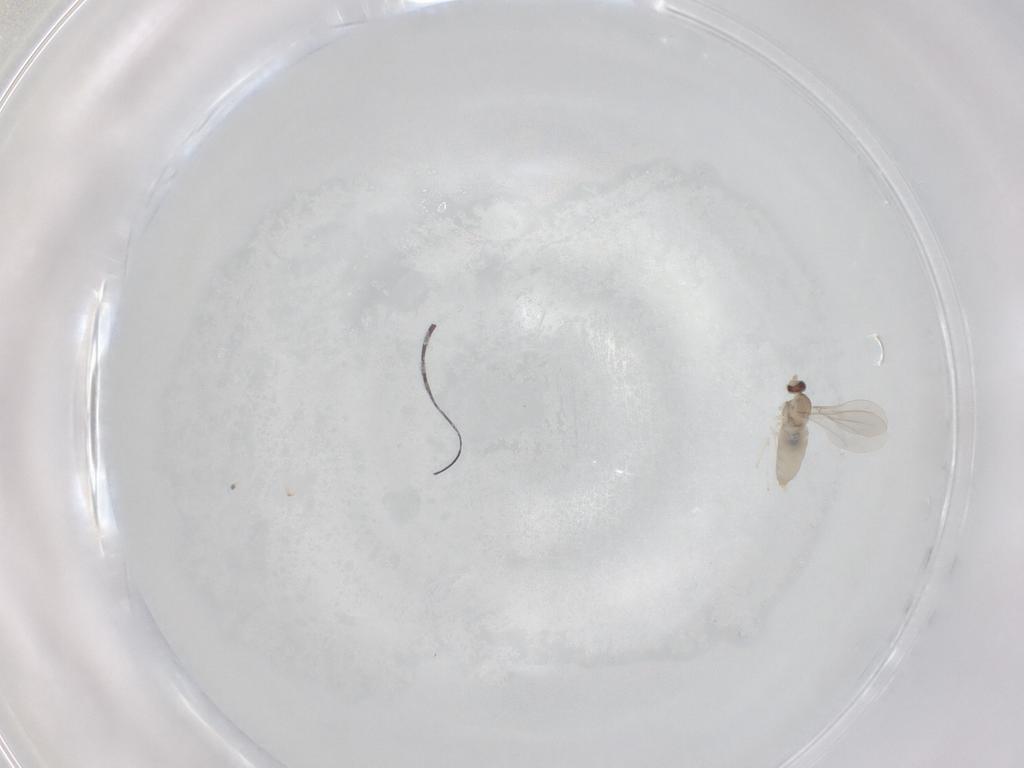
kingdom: Animalia
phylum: Arthropoda
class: Insecta
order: Diptera
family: Cecidomyiidae
